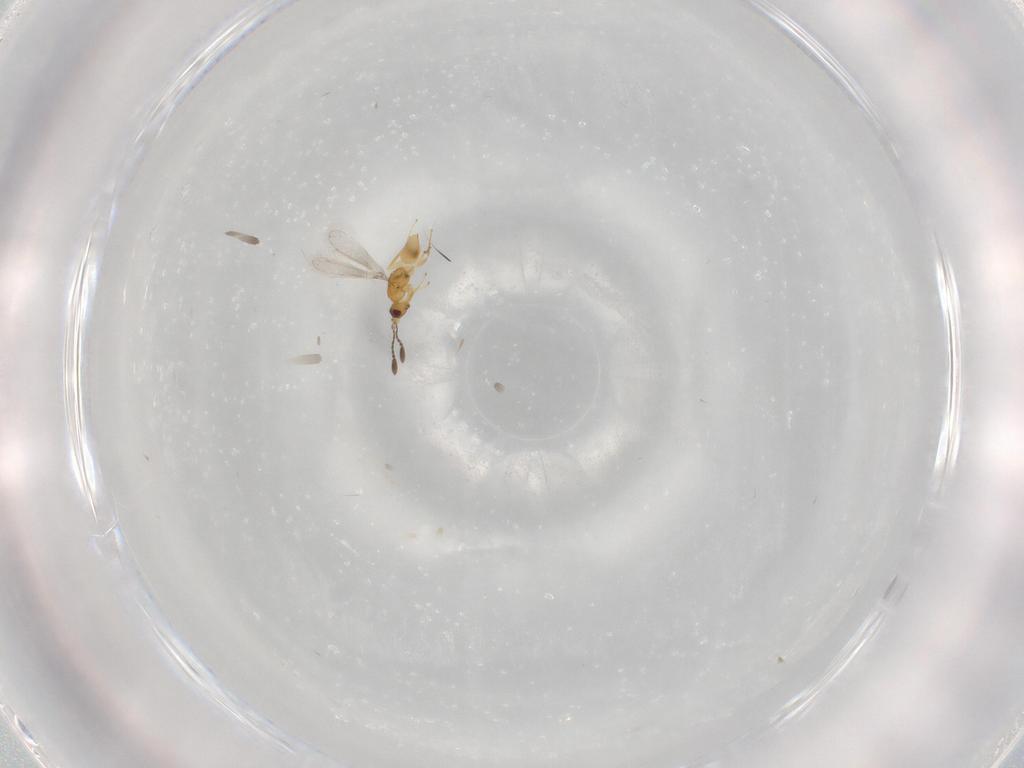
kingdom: Animalia
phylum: Arthropoda
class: Insecta
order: Hymenoptera
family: Mymaridae
